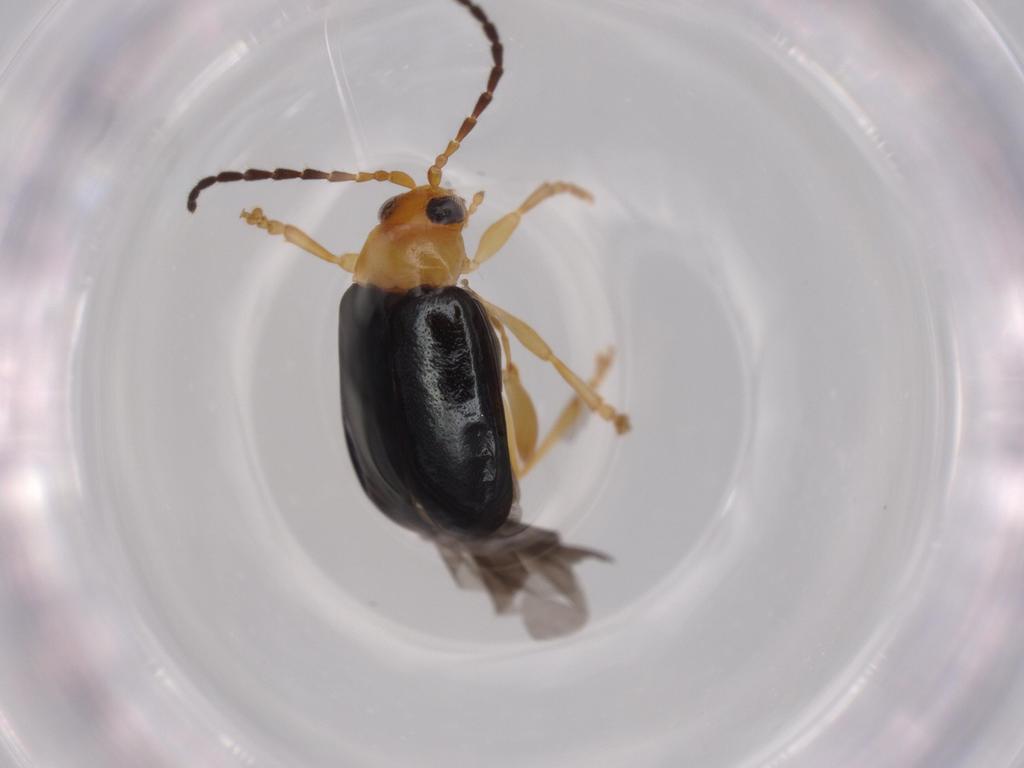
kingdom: Animalia
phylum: Arthropoda
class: Insecta
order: Coleoptera
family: Chrysomelidae
